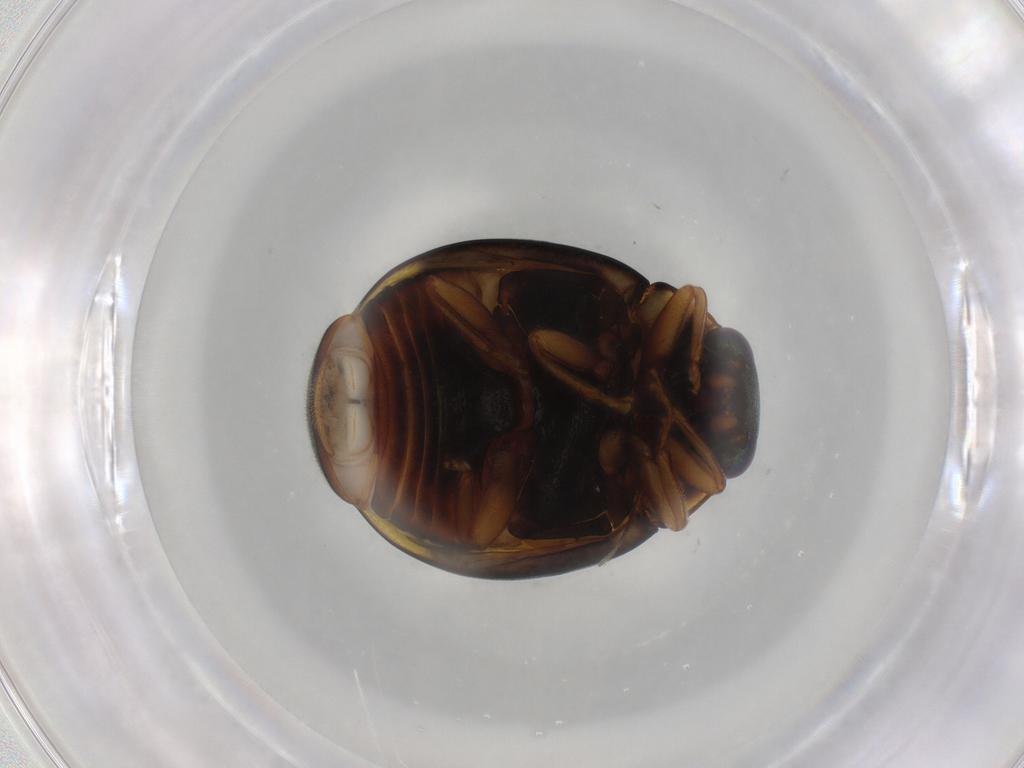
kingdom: Animalia
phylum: Arthropoda
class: Insecta
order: Coleoptera
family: Coccinellidae
